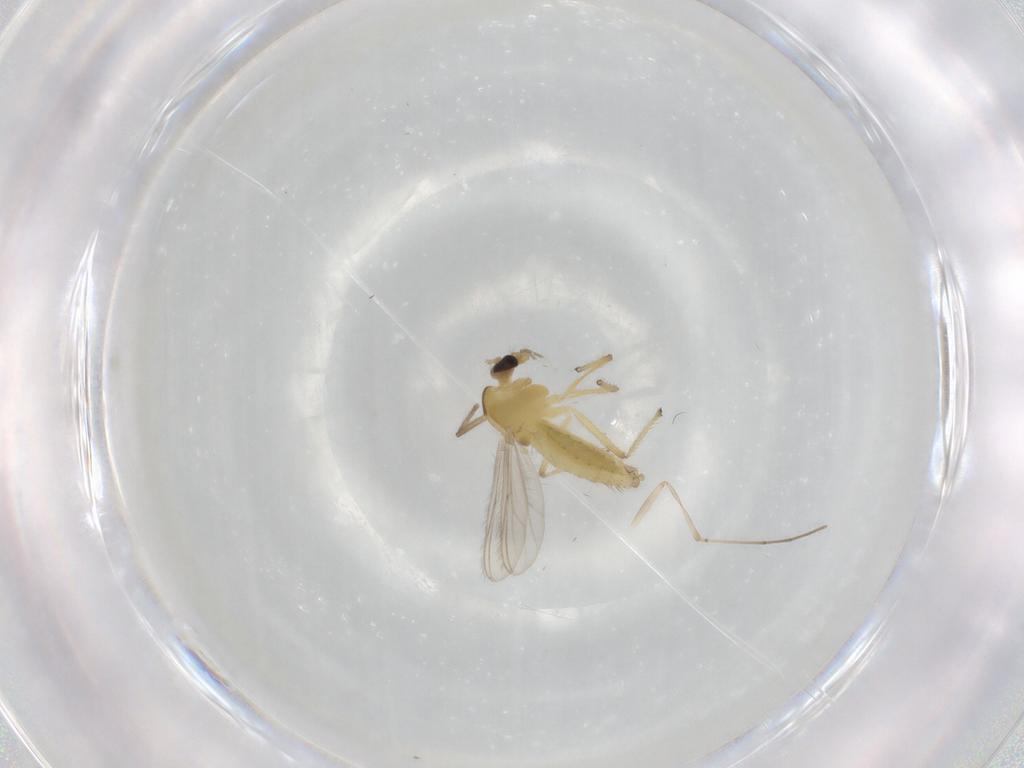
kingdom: Animalia
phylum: Arthropoda
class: Insecta
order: Diptera
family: Chironomidae
